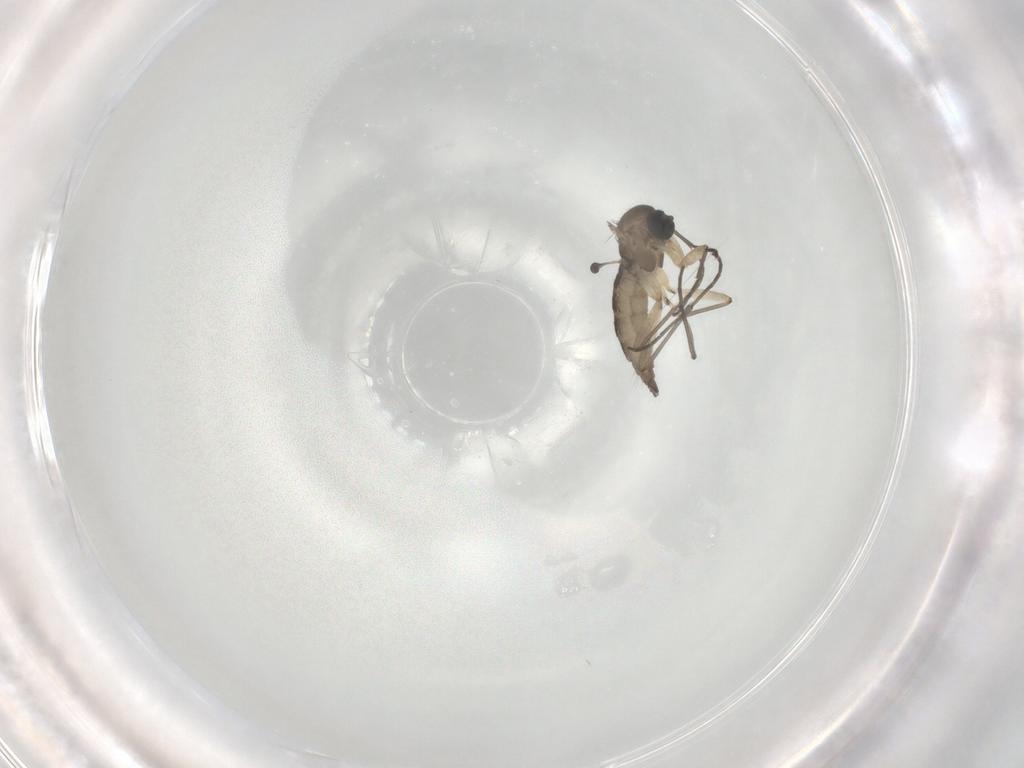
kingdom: Animalia
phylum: Arthropoda
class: Insecta
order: Diptera
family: Sciaridae
